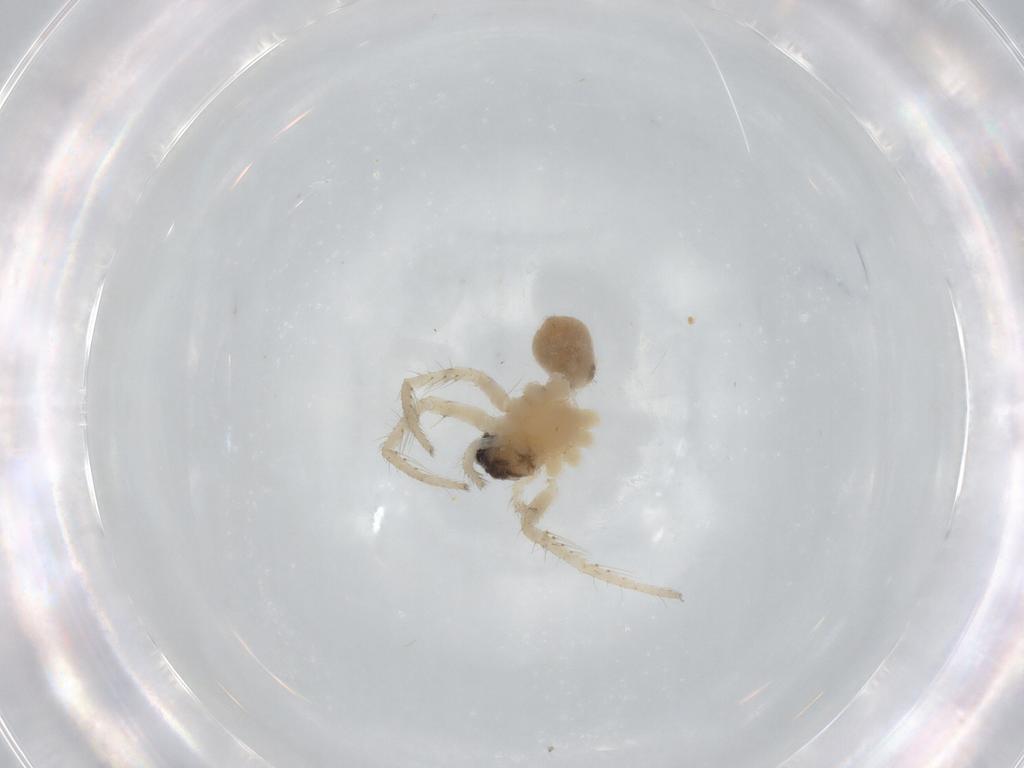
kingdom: Animalia
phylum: Arthropoda
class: Arachnida
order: Araneae
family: Lycosidae
